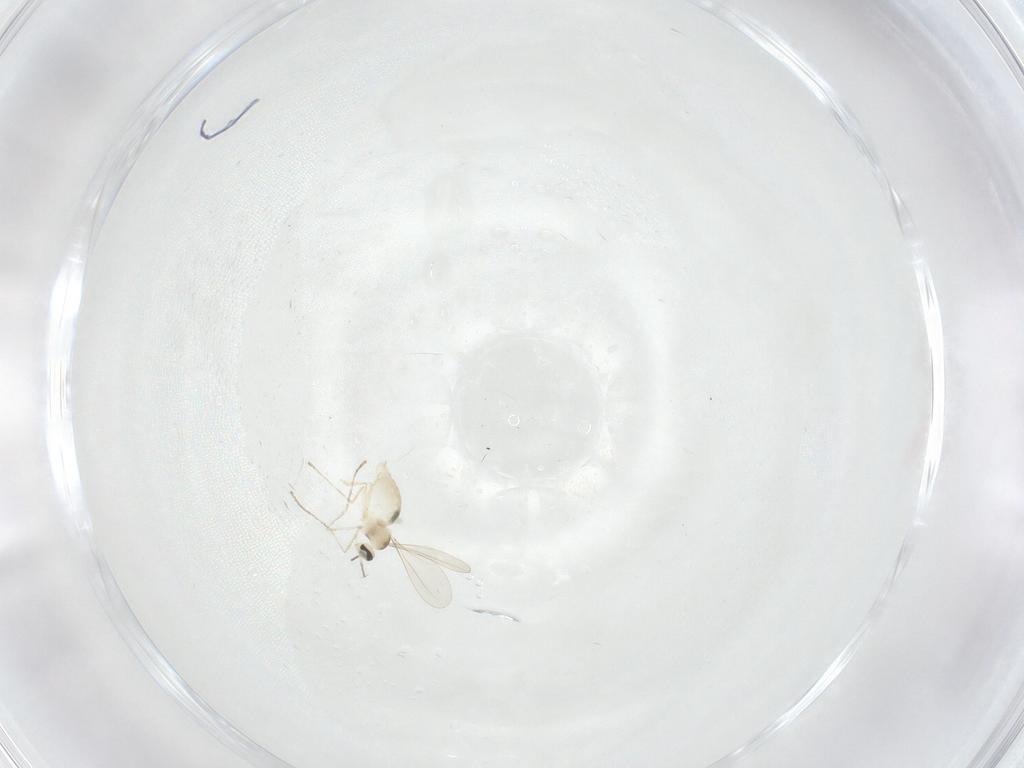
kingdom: Animalia
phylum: Arthropoda
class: Insecta
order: Diptera
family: Cecidomyiidae
